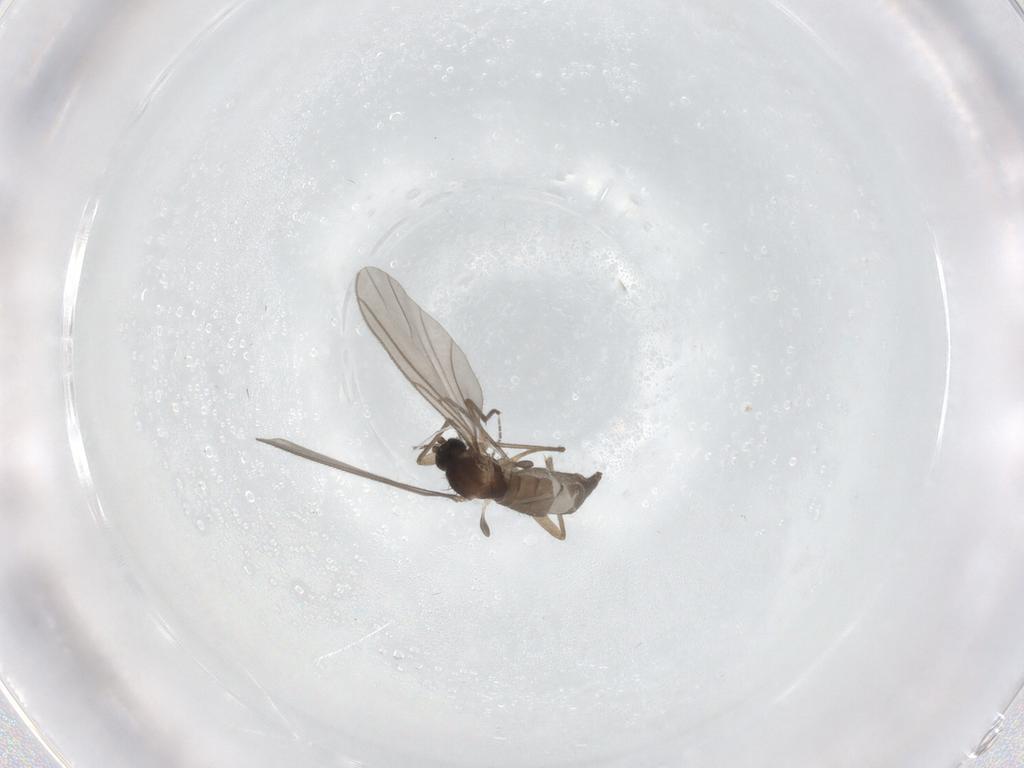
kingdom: Animalia
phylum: Arthropoda
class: Insecta
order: Diptera
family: Sciaridae
